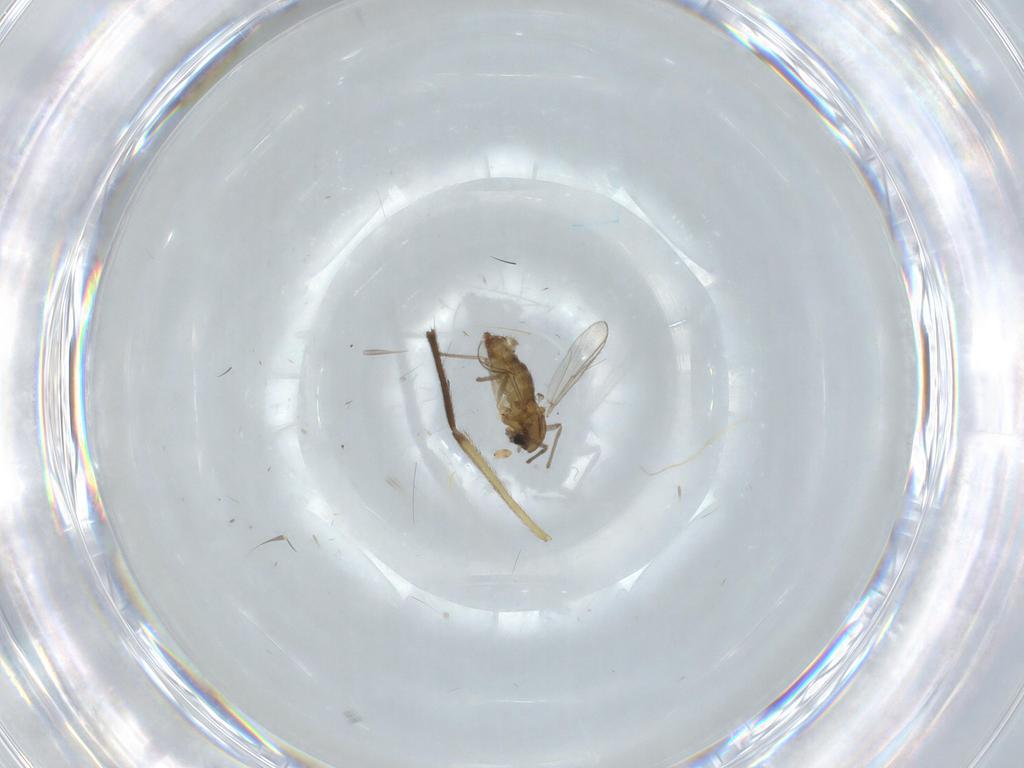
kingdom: Animalia
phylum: Arthropoda
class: Insecta
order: Diptera
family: Chironomidae
